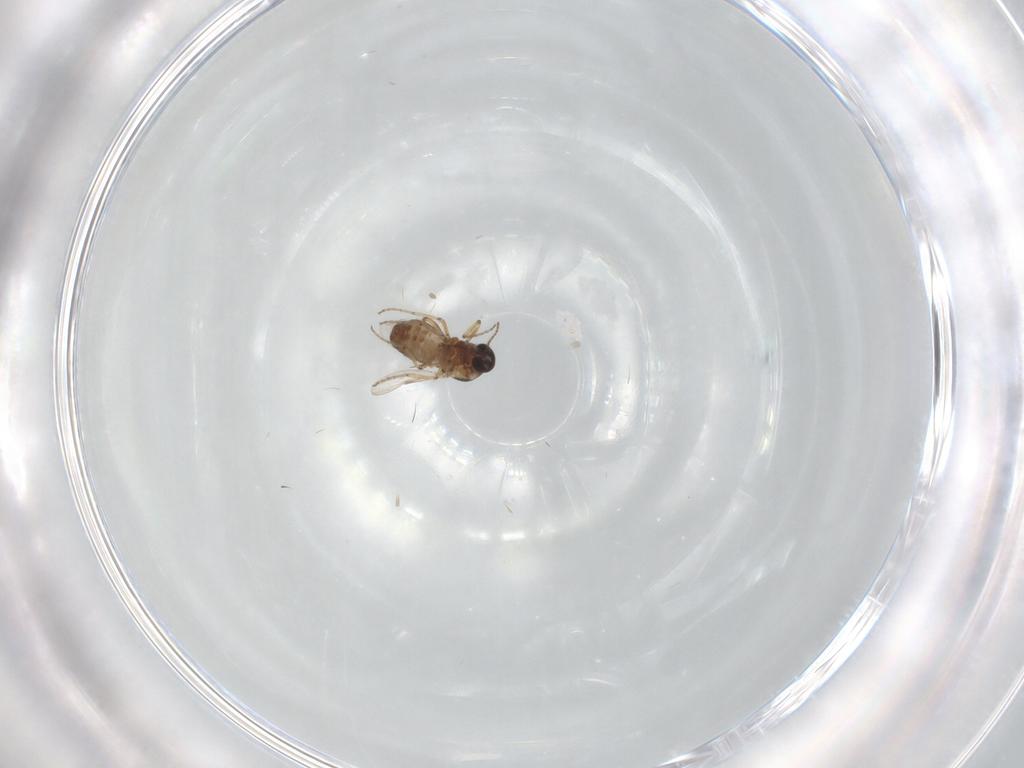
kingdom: Animalia
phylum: Arthropoda
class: Insecta
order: Diptera
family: Ceratopogonidae
